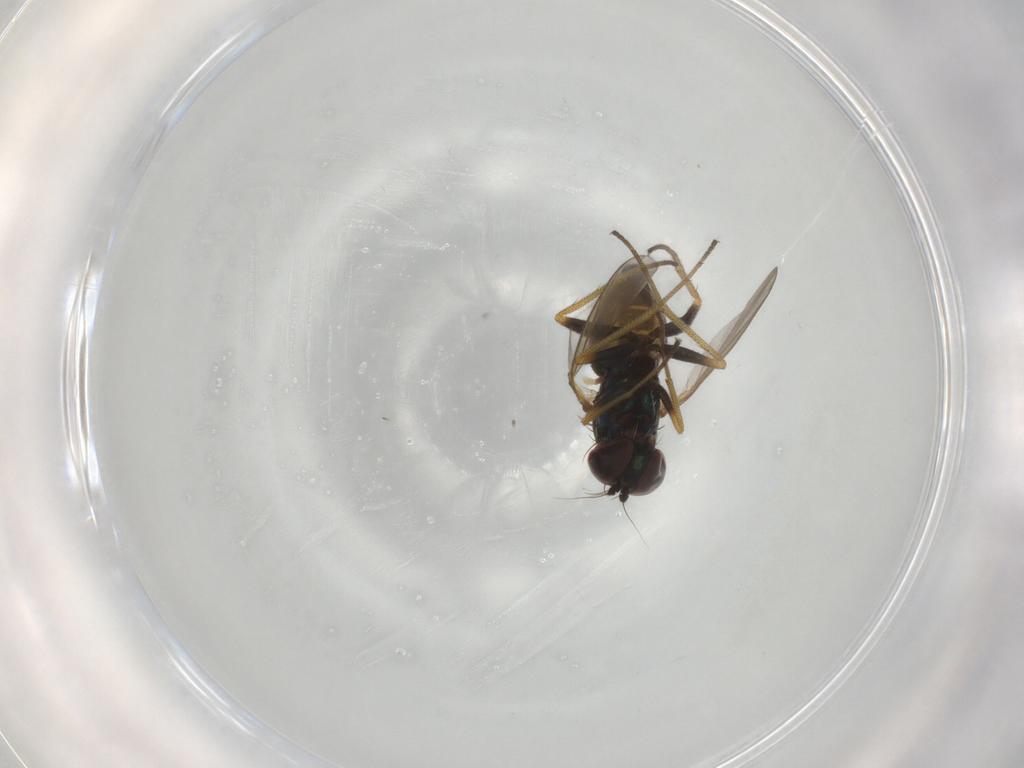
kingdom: Animalia
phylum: Arthropoda
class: Insecta
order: Diptera
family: Dolichopodidae
